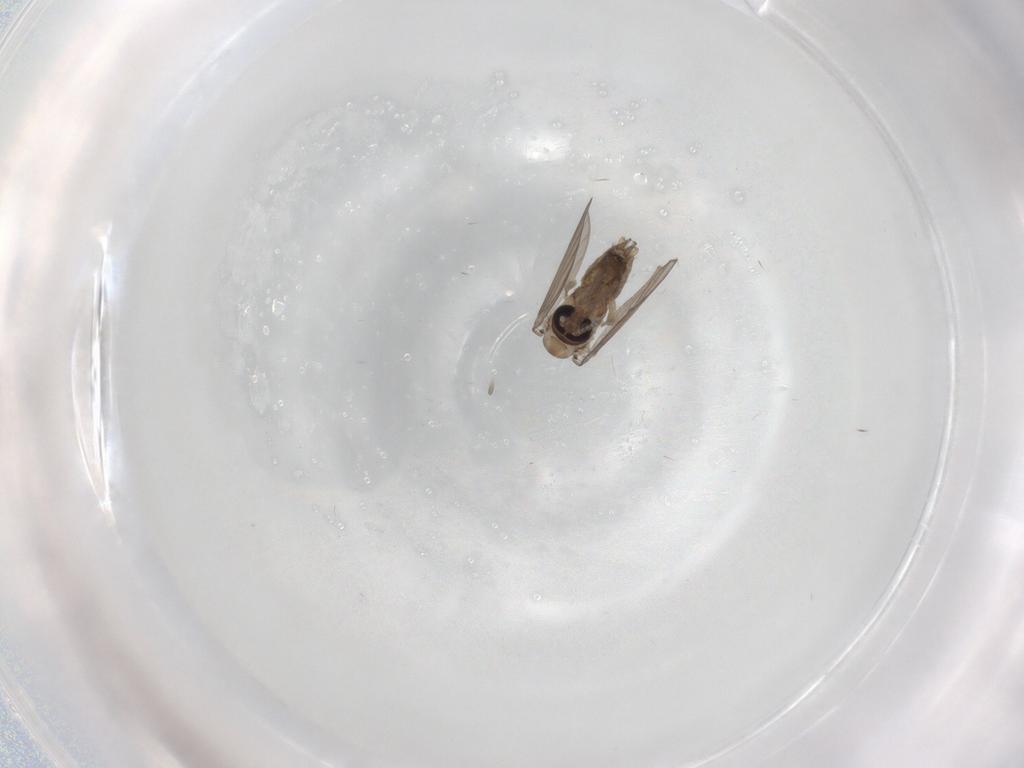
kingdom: Animalia
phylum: Arthropoda
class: Insecta
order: Diptera
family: Psychodidae
